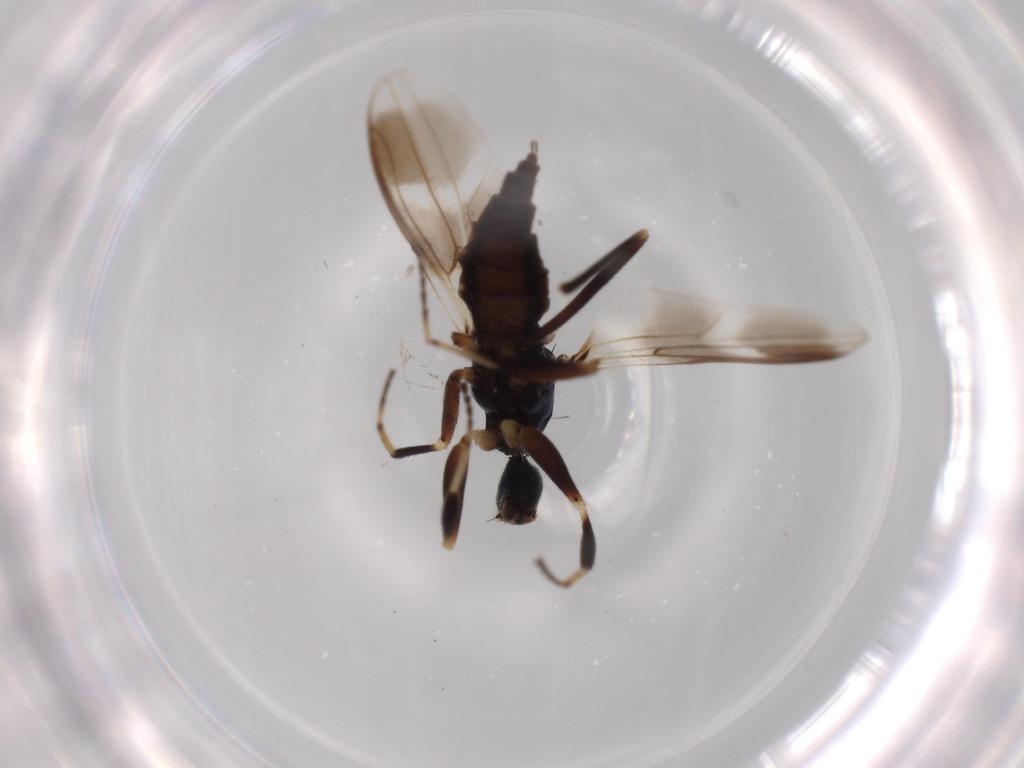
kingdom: Animalia
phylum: Arthropoda
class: Insecta
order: Diptera
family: Hybotidae
